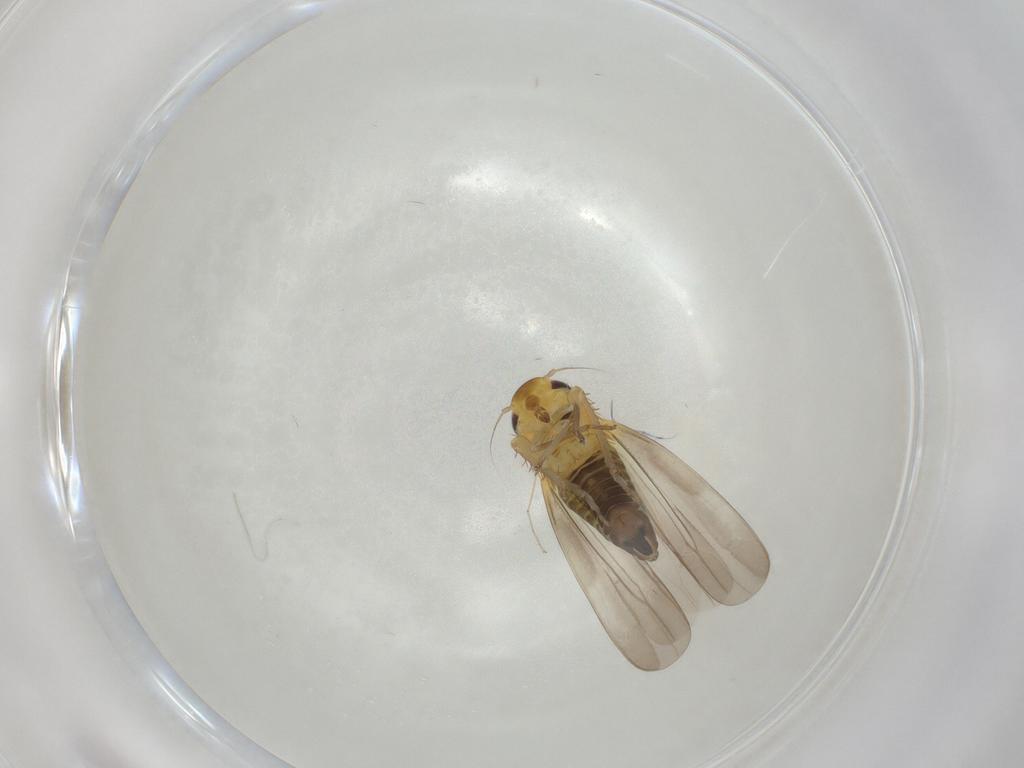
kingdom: Animalia
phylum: Arthropoda
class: Insecta
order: Hemiptera
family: Cicadellidae
